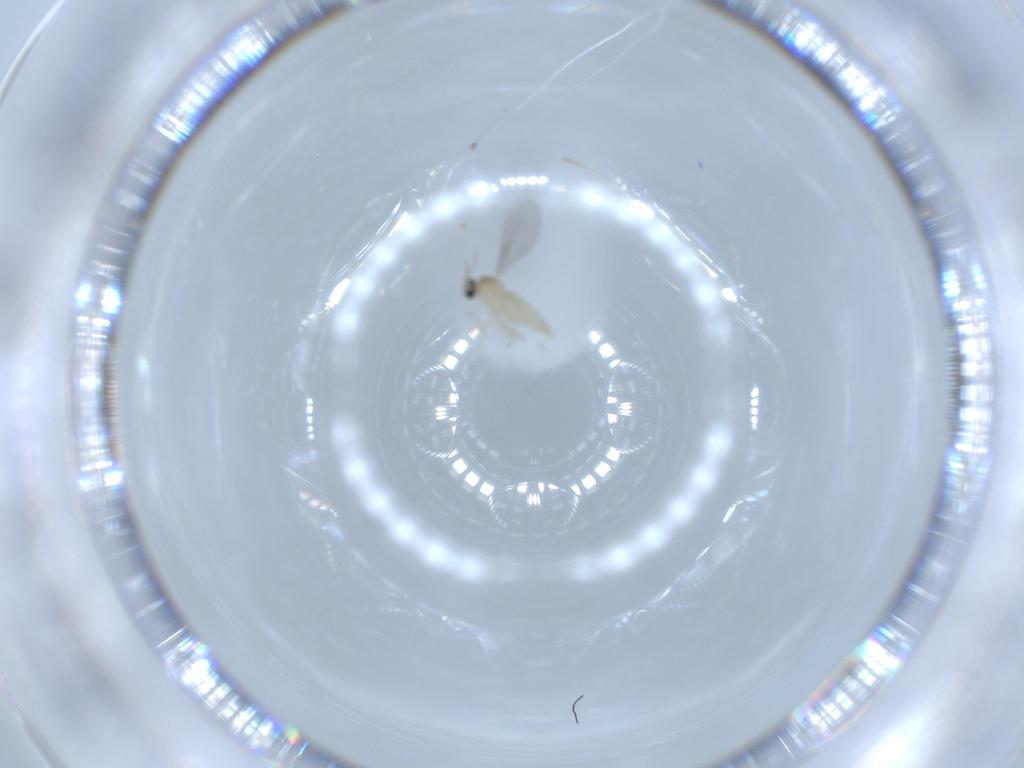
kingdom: Animalia
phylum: Arthropoda
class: Insecta
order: Diptera
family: Cecidomyiidae
